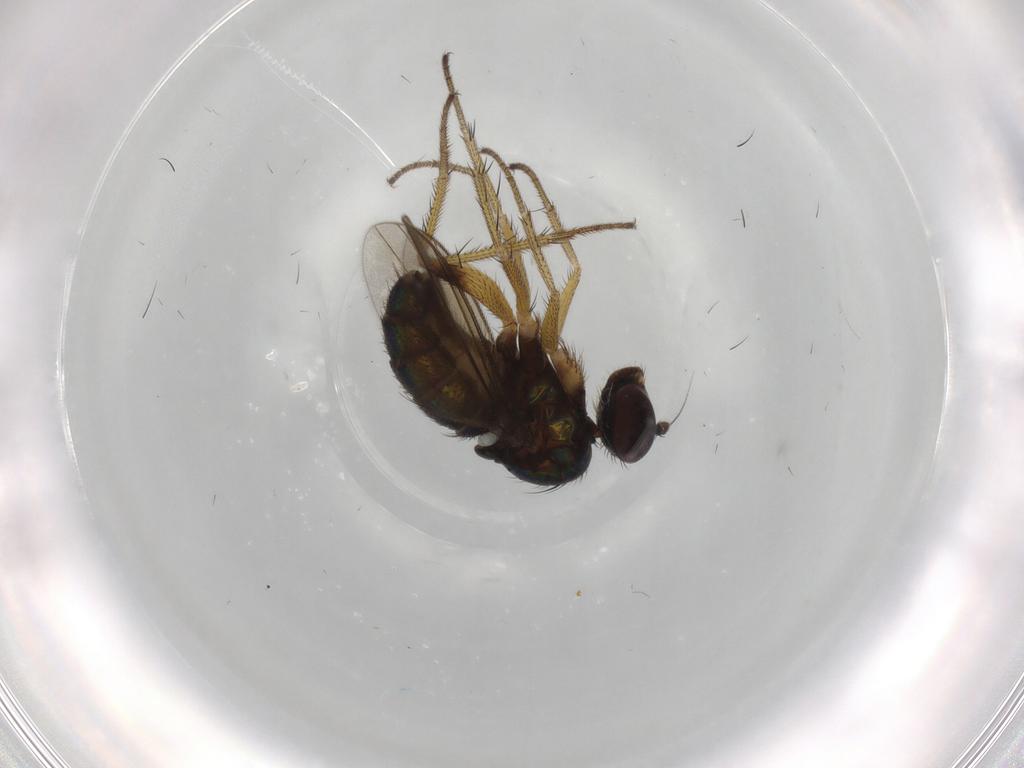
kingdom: Animalia
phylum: Arthropoda
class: Insecta
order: Diptera
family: Dolichopodidae
